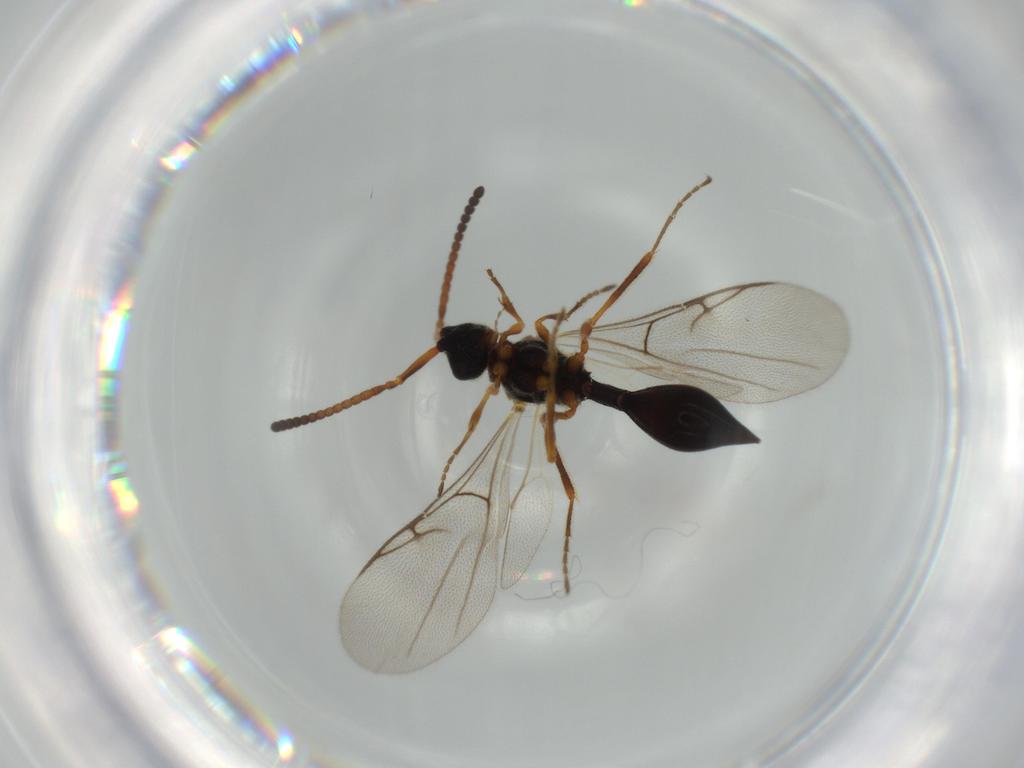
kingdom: Animalia
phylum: Arthropoda
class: Insecta
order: Hymenoptera
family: Diapriidae
